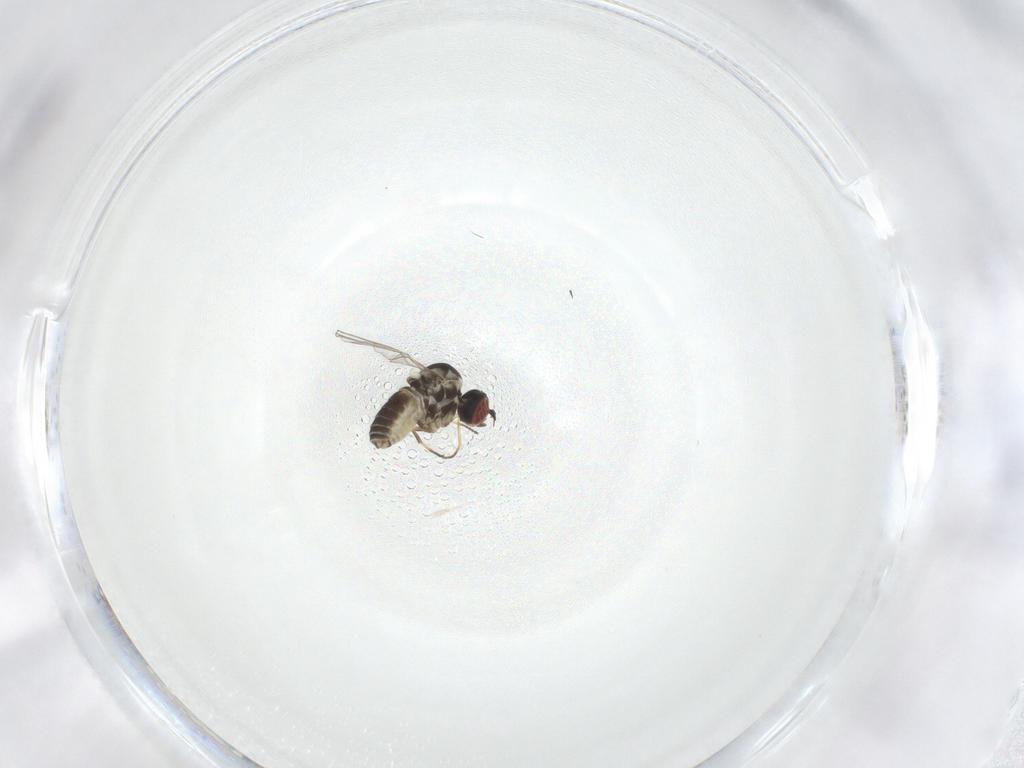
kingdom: Animalia
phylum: Arthropoda
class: Insecta
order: Diptera
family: Mythicomyiidae
